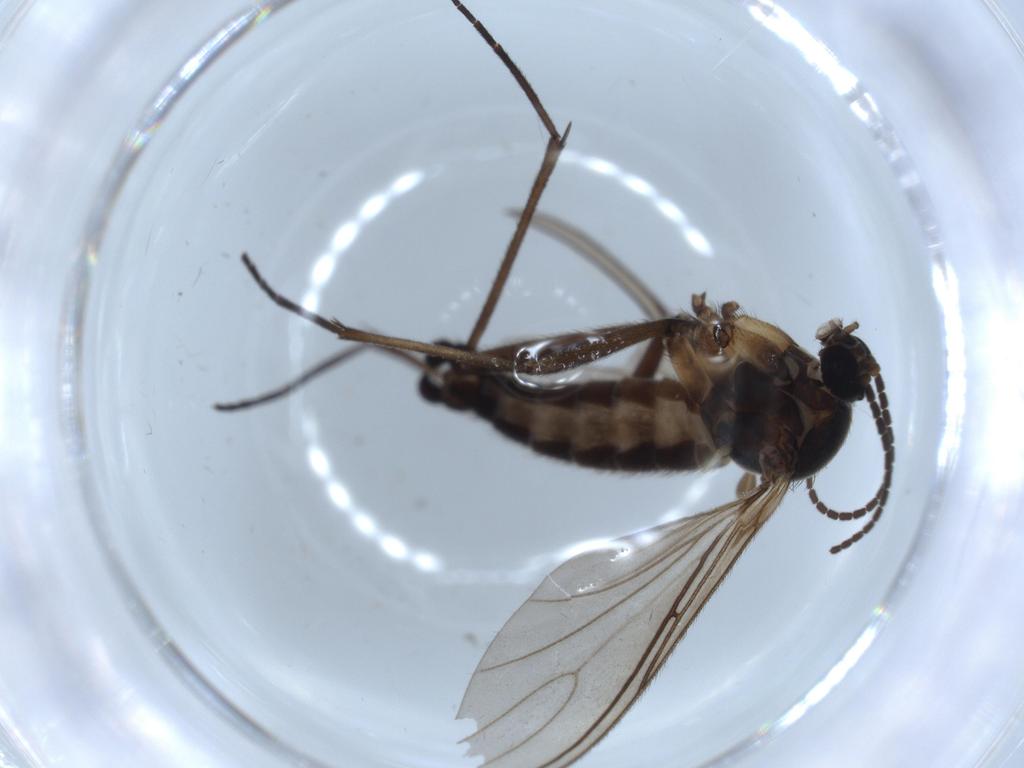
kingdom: Animalia
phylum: Arthropoda
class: Insecta
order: Diptera
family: Sciaridae
